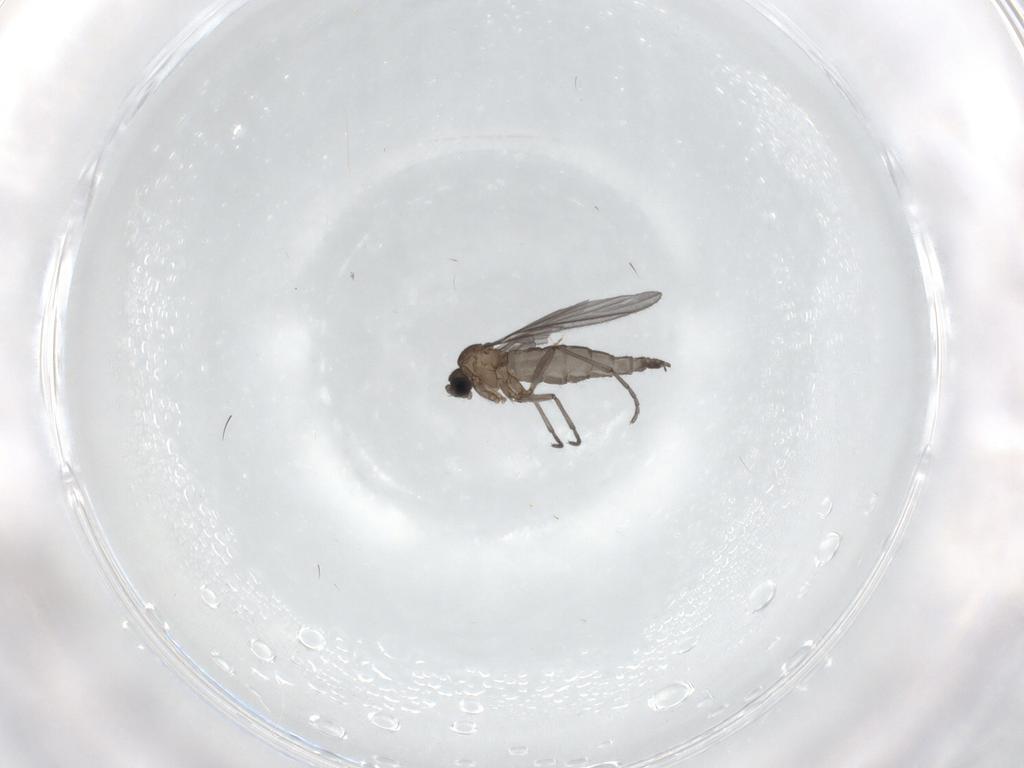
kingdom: Animalia
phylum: Arthropoda
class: Insecta
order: Diptera
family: Sciaridae
